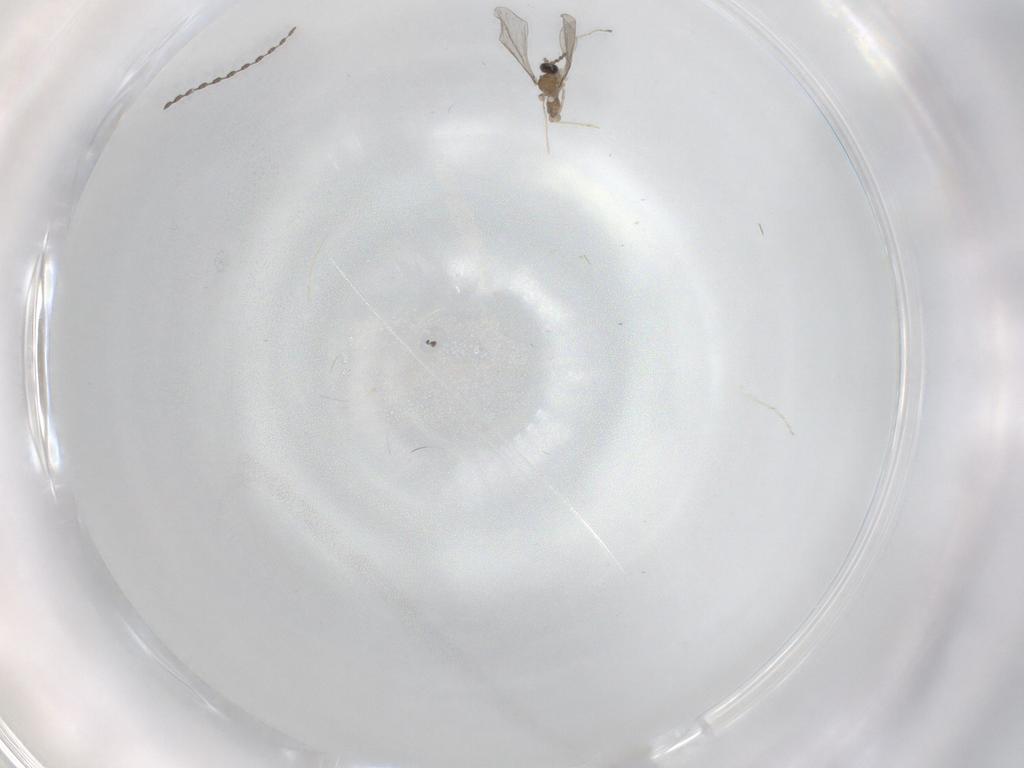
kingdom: Animalia
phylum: Arthropoda
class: Insecta
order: Diptera
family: Cecidomyiidae
